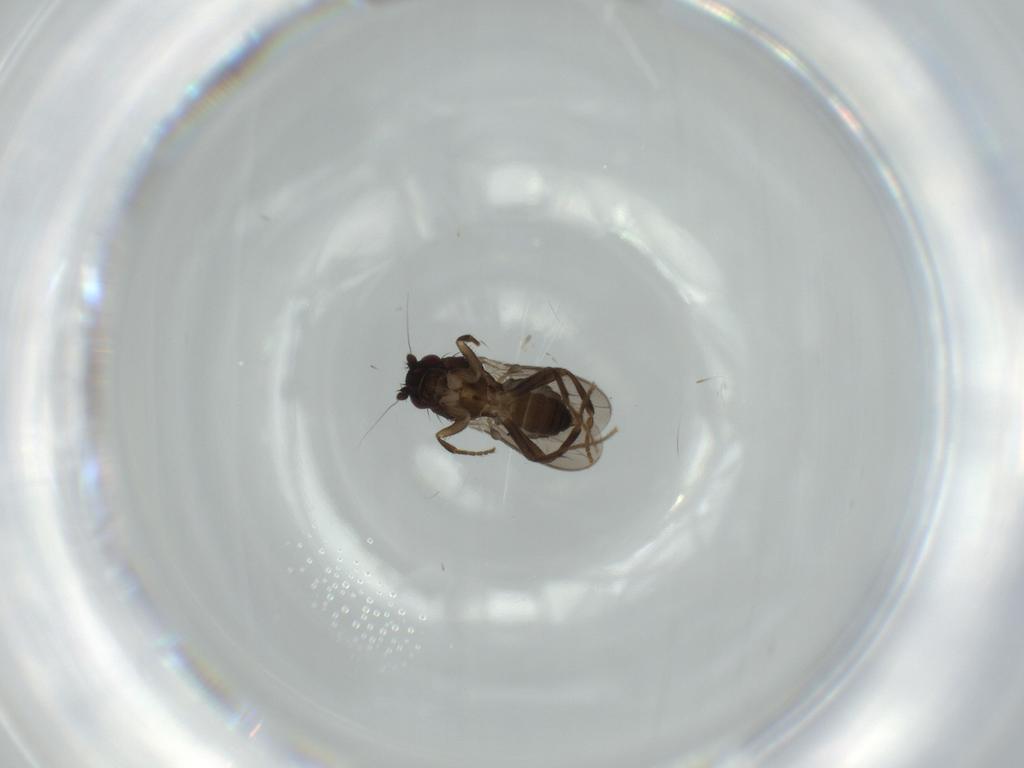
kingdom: Animalia
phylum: Arthropoda
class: Insecta
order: Diptera
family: Sphaeroceridae
